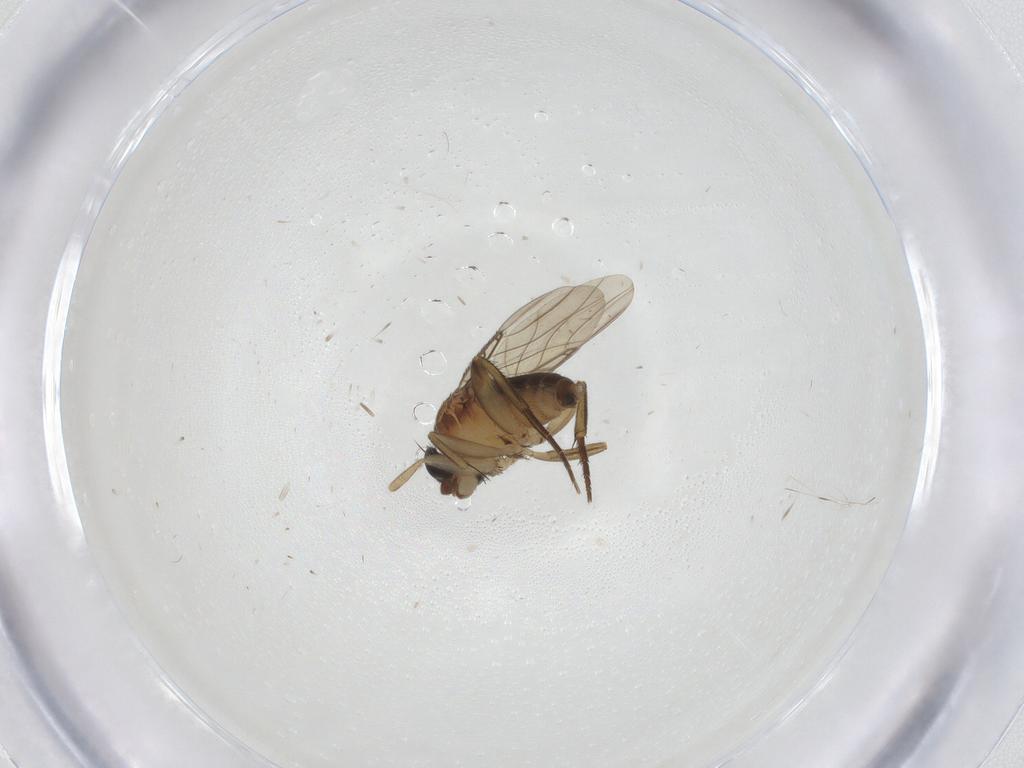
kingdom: Animalia
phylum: Arthropoda
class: Insecta
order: Diptera
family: Phoridae
